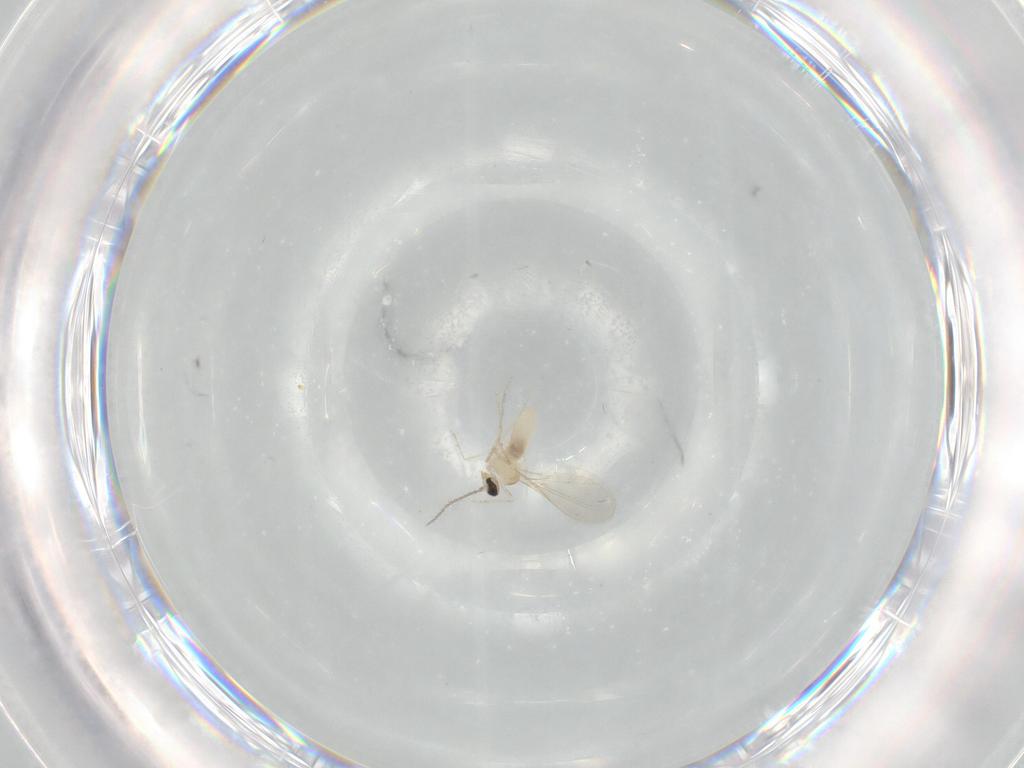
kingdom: Animalia
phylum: Arthropoda
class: Insecta
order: Diptera
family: Cecidomyiidae
